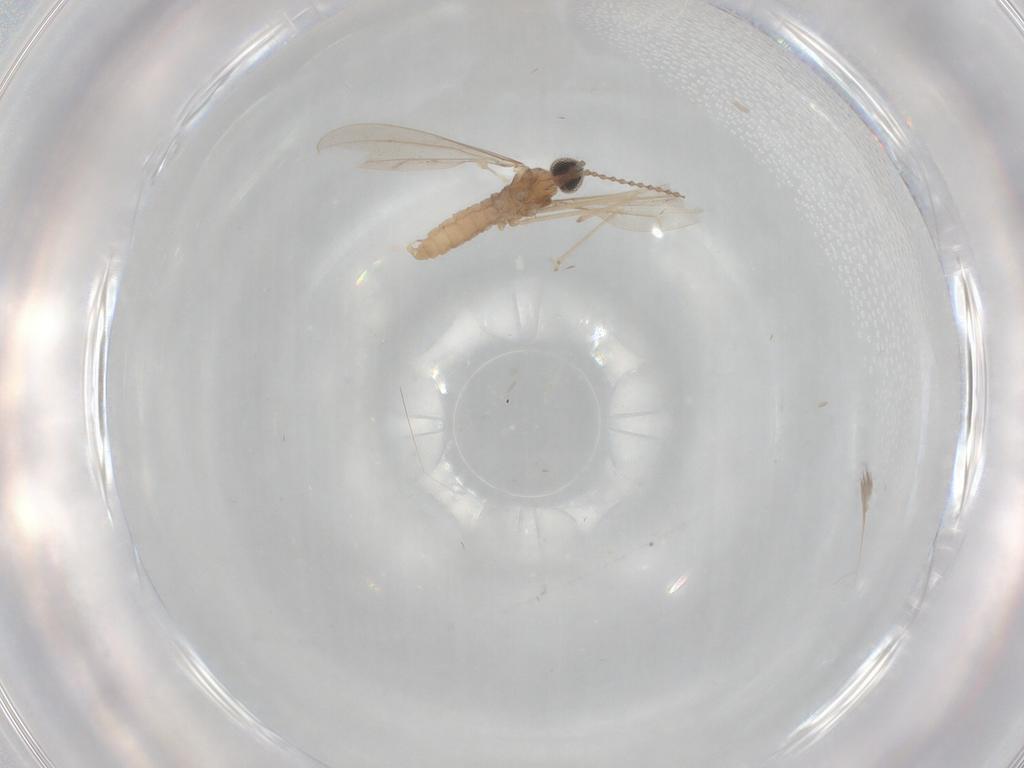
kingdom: Animalia
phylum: Arthropoda
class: Insecta
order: Diptera
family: Cecidomyiidae
